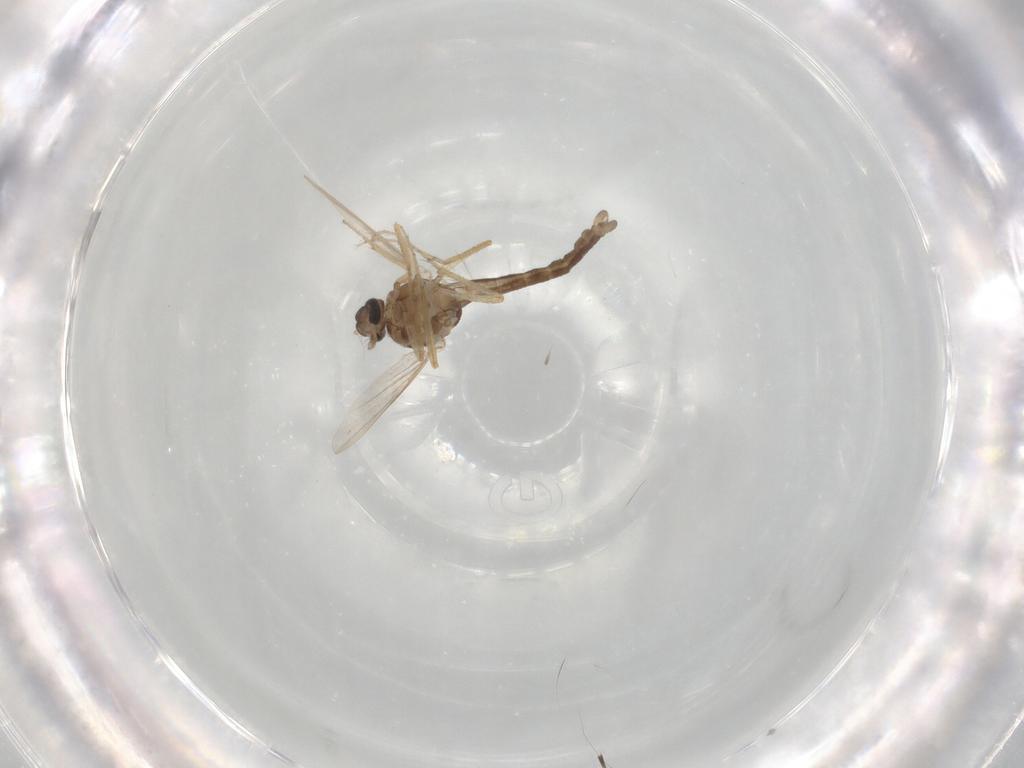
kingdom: Animalia
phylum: Arthropoda
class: Insecta
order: Diptera
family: Ceratopogonidae
